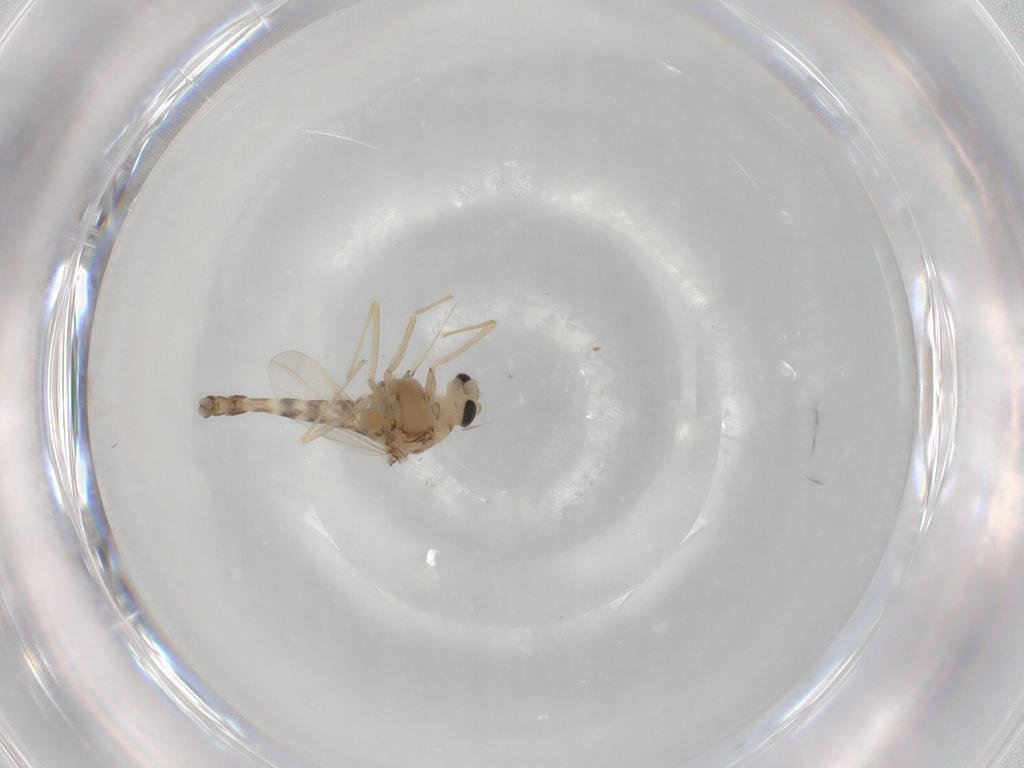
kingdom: Animalia
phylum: Arthropoda
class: Insecta
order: Diptera
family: Chironomidae
